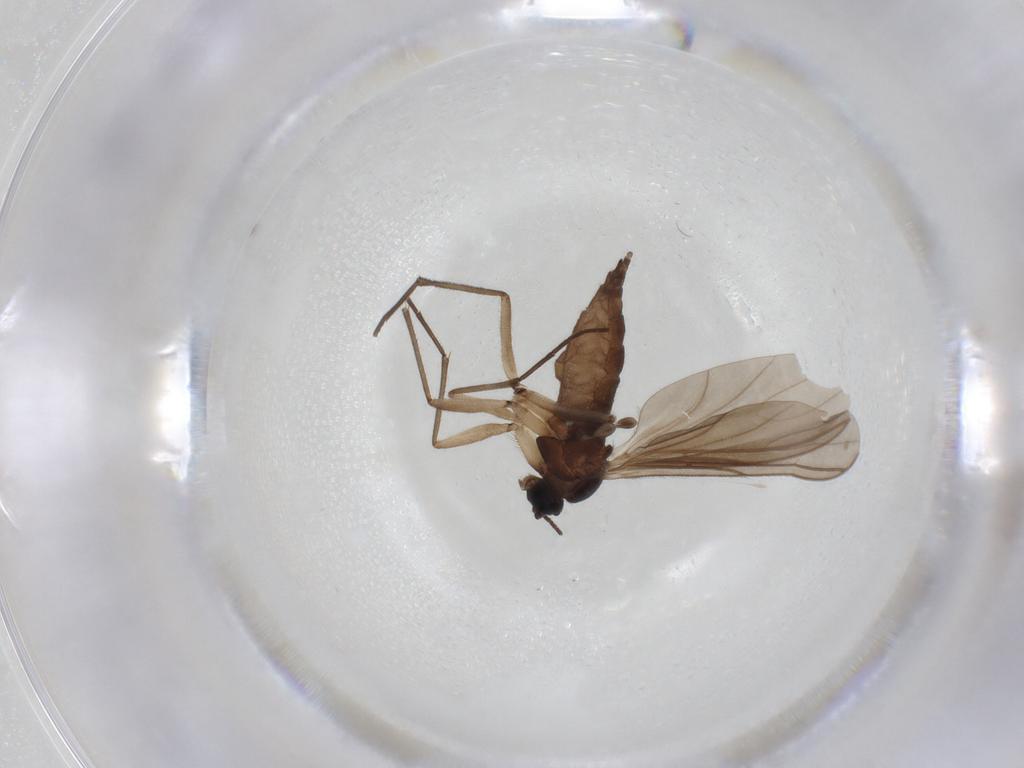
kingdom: Animalia
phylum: Arthropoda
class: Insecta
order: Diptera
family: Sciaridae
